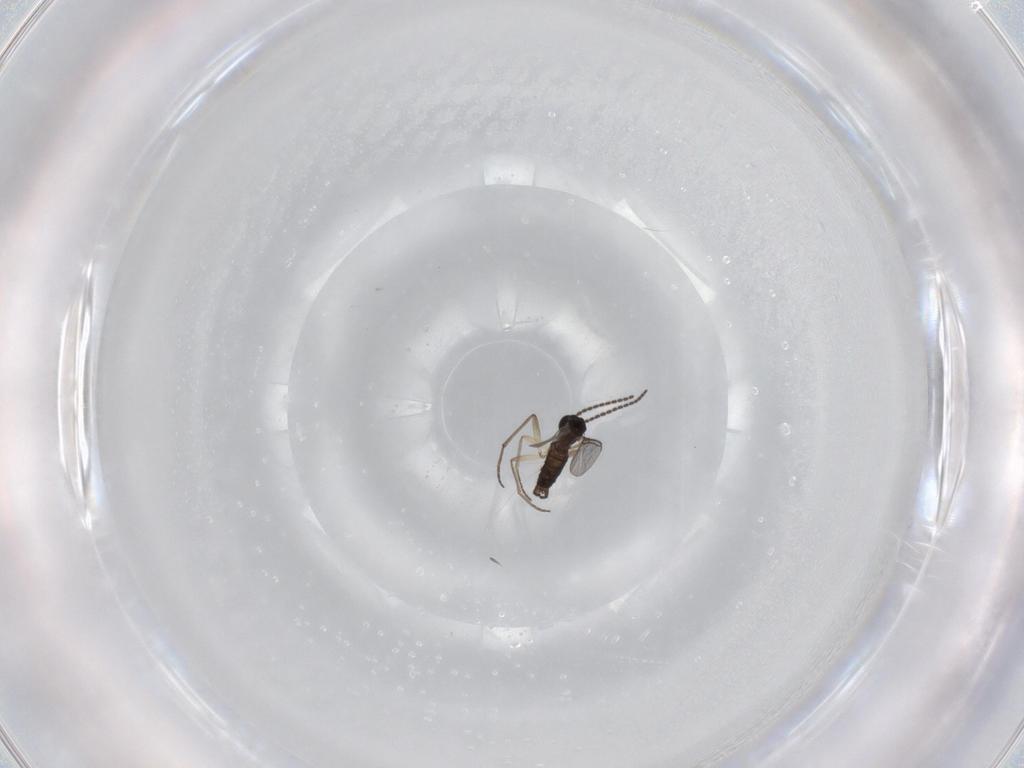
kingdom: Animalia
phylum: Arthropoda
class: Insecta
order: Diptera
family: Sciaridae
